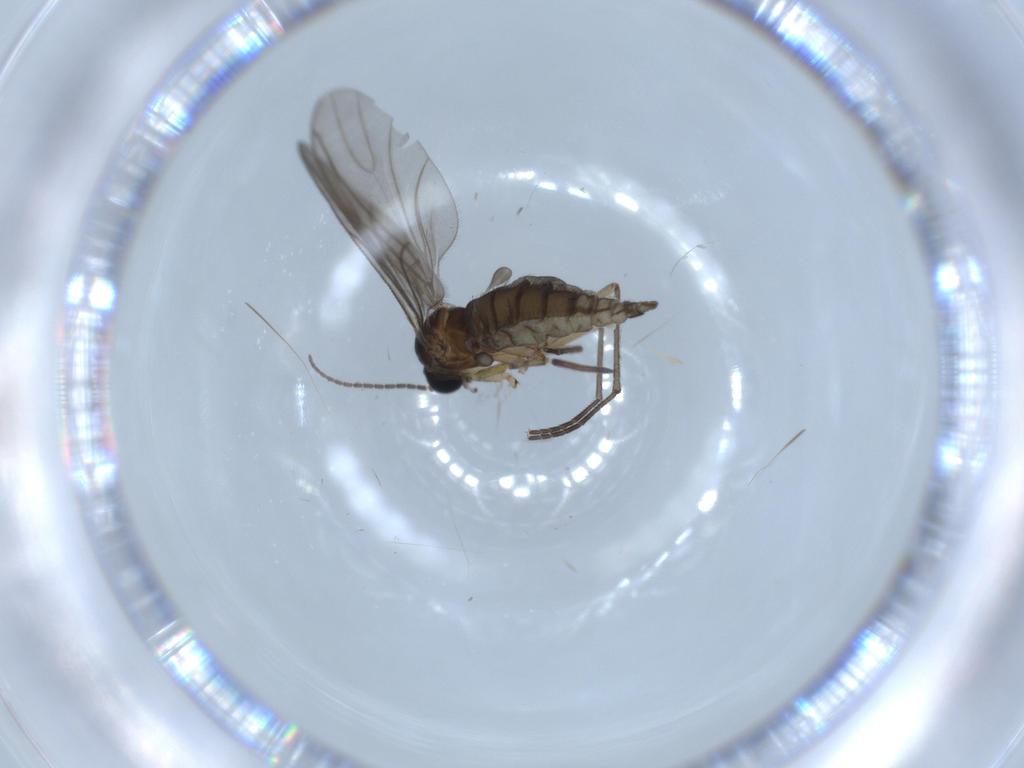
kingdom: Animalia
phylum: Arthropoda
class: Insecta
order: Diptera
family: Sciaridae
